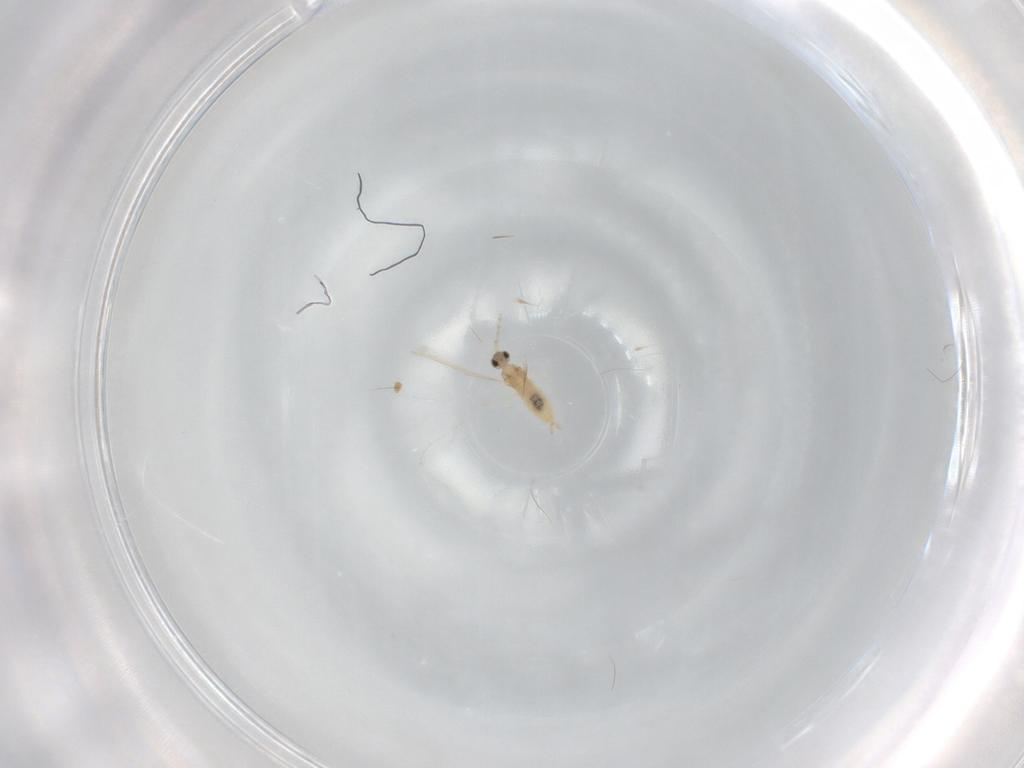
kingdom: Animalia
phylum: Arthropoda
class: Insecta
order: Diptera
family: Cecidomyiidae
